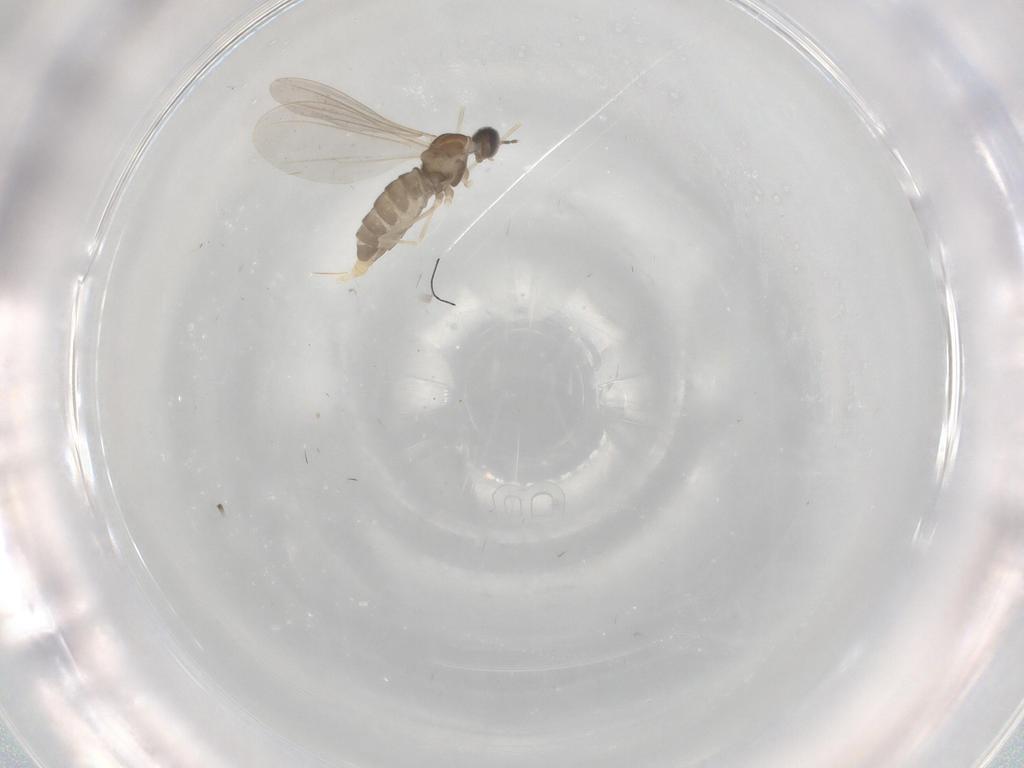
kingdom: Animalia
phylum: Arthropoda
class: Insecta
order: Diptera
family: Cecidomyiidae
